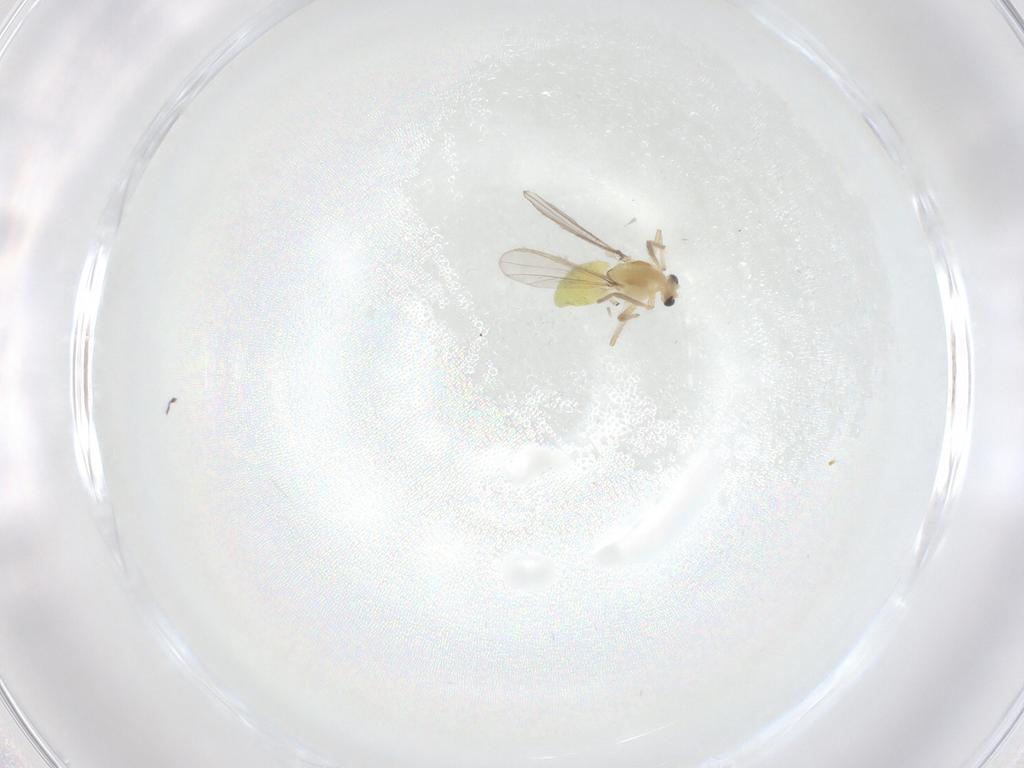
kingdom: Animalia
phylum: Arthropoda
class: Insecta
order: Diptera
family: Chironomidae
